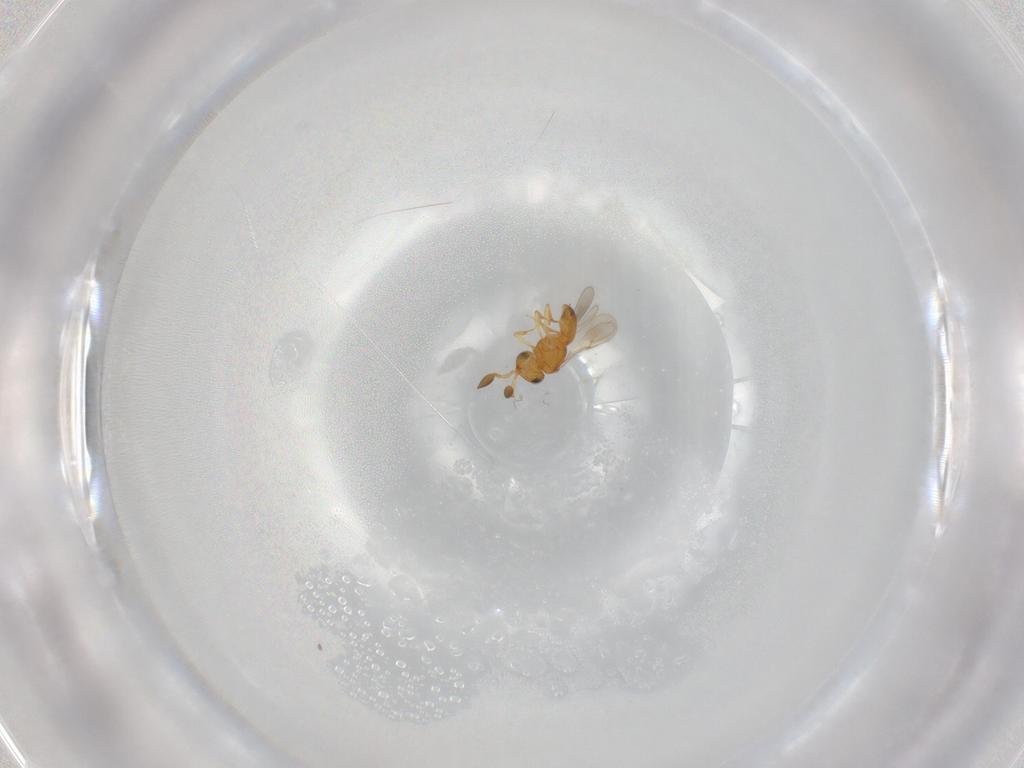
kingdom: Animalia
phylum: Arthropoda
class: Insecta
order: Hymenoptera
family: Scelionidae
